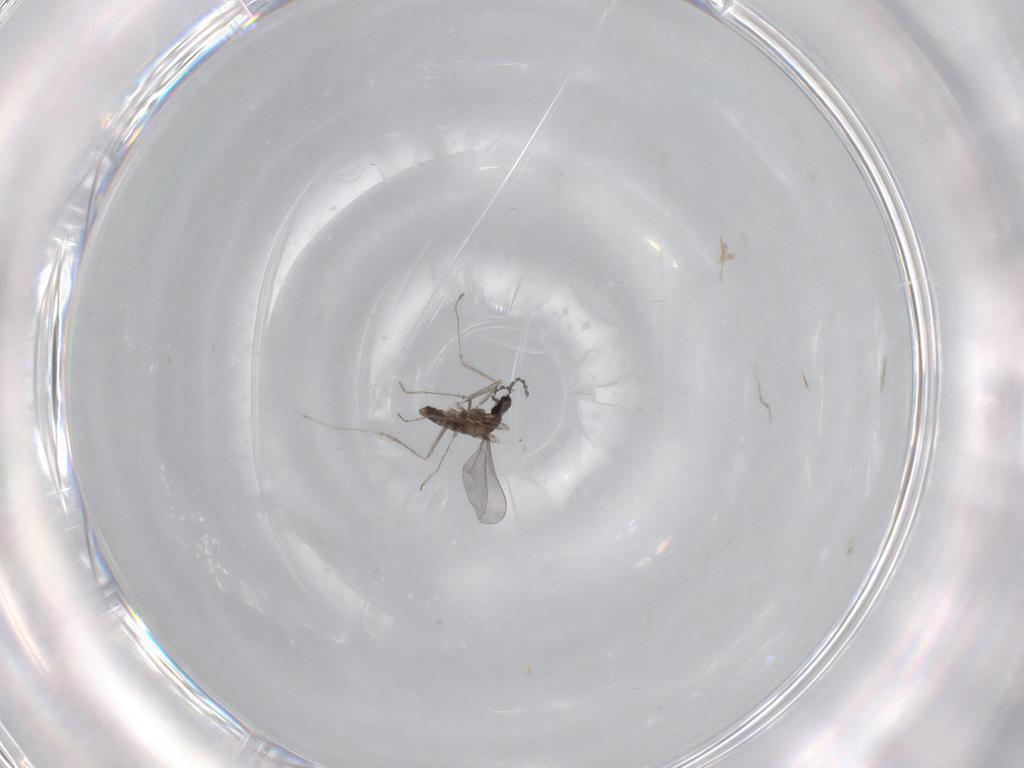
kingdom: Animalia
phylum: Arthropoda
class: Insecta
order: Diptera
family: Cecidomyiidae
